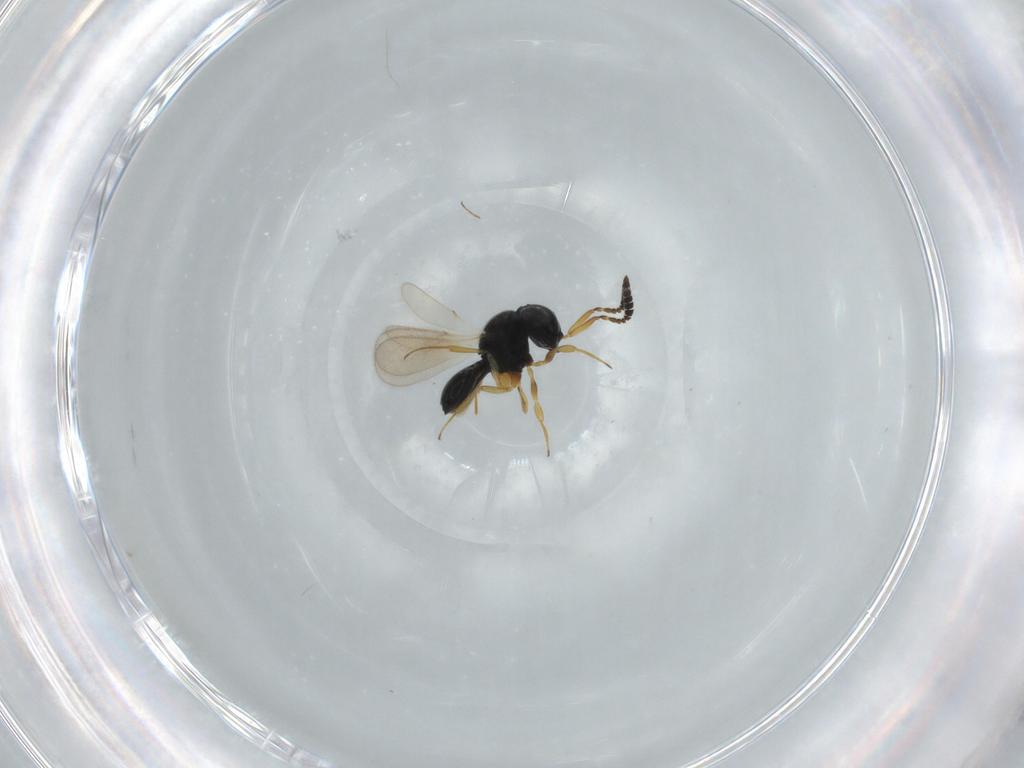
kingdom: Animalia
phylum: Arthropoda
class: Insecta
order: Hymenoptera
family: Scelionidae
